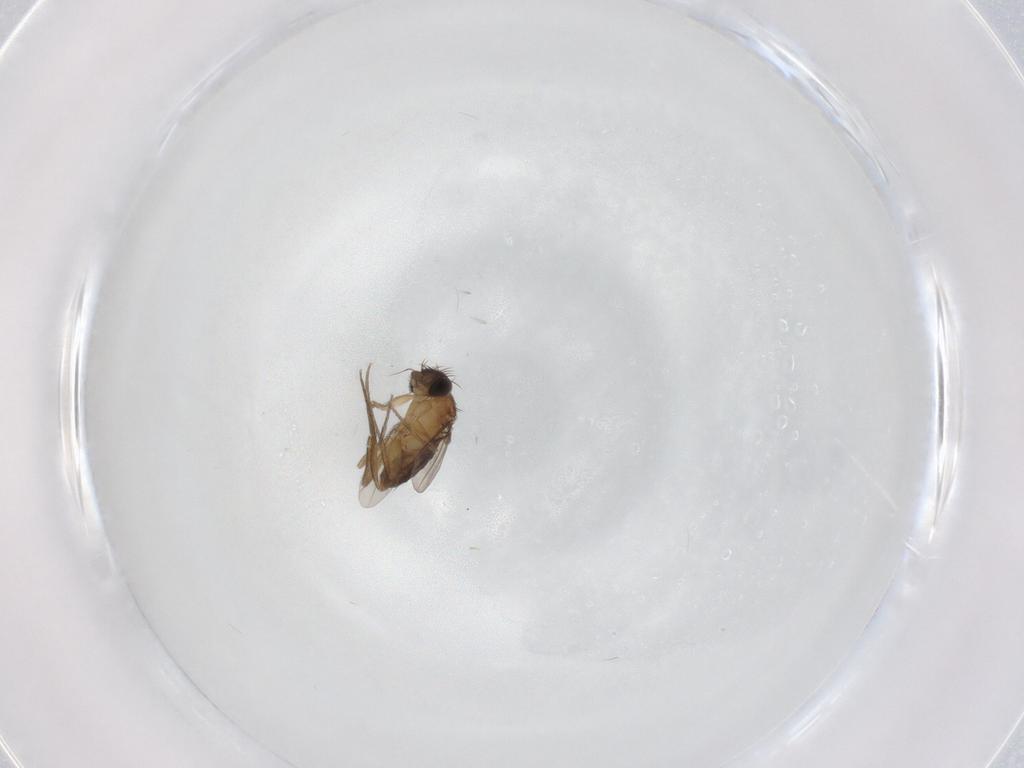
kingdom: Animalia
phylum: Arthropoda
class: Insecta
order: Diptera
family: Phoridae
